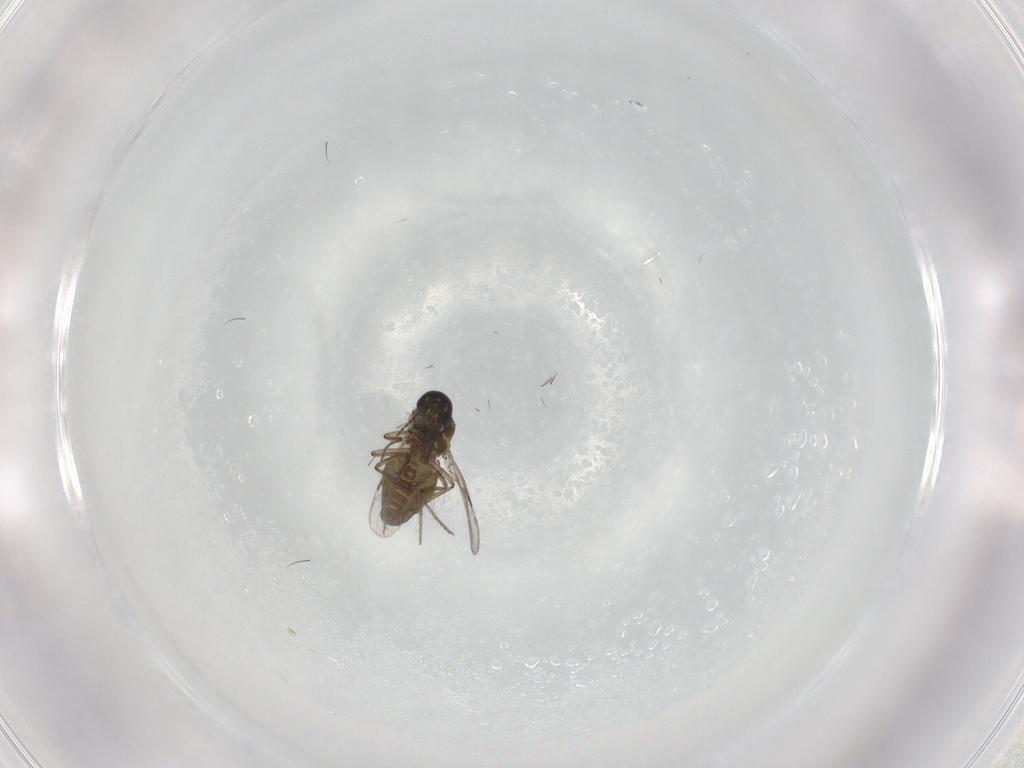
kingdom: Animalia
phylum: Arthropoda
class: Insecta
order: Diptera
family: Ceratopogonidae
